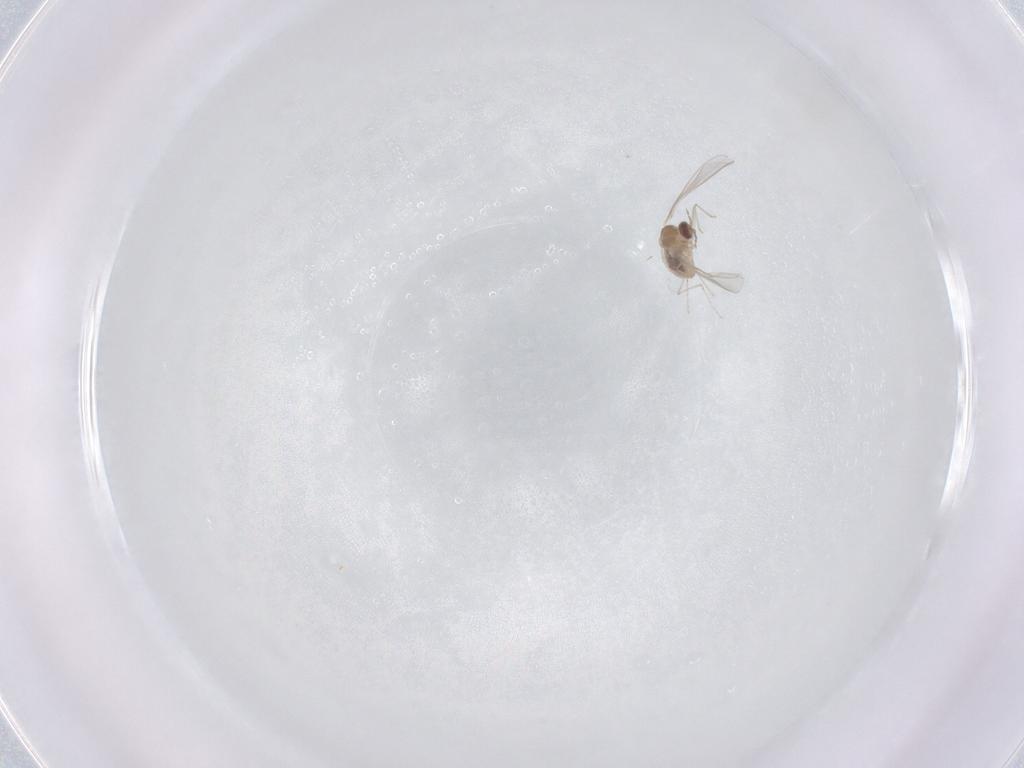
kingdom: Animalia
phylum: Arthropoda
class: Insecta
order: Diptera
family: Cecidomyiidae
